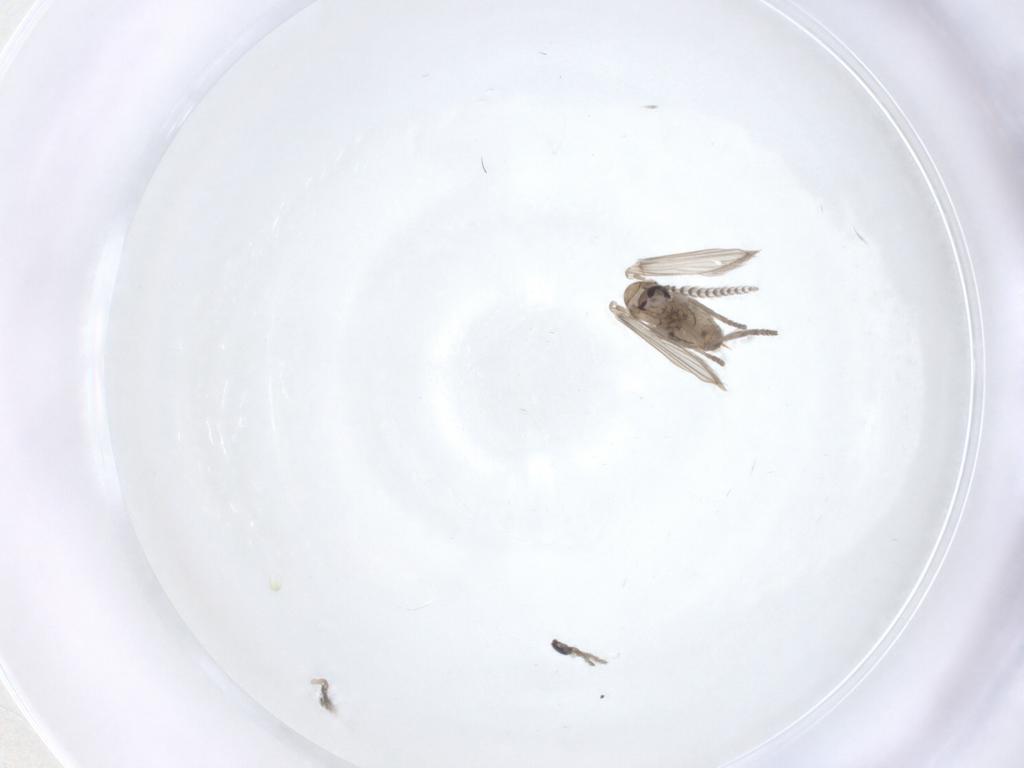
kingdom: Animalia
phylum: Arthropoda
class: Insecta
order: Diptera
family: Psychodidae
